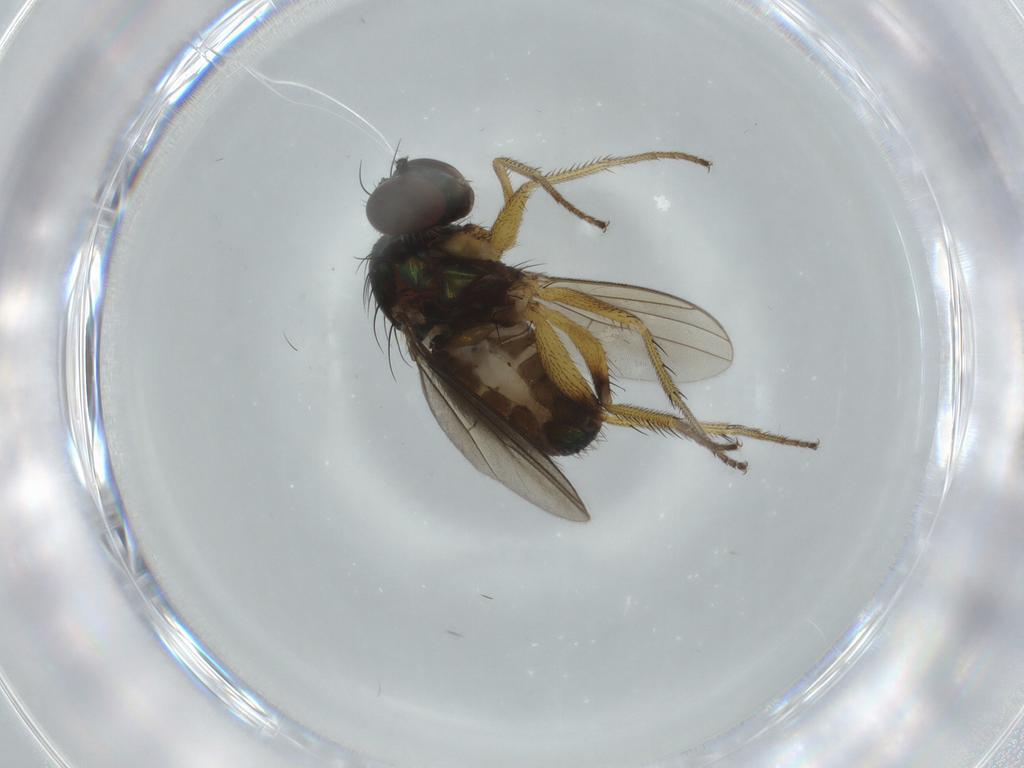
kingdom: Animalia
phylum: Arthropoda
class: Insecta
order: Diptera
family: Dolichopodidae
